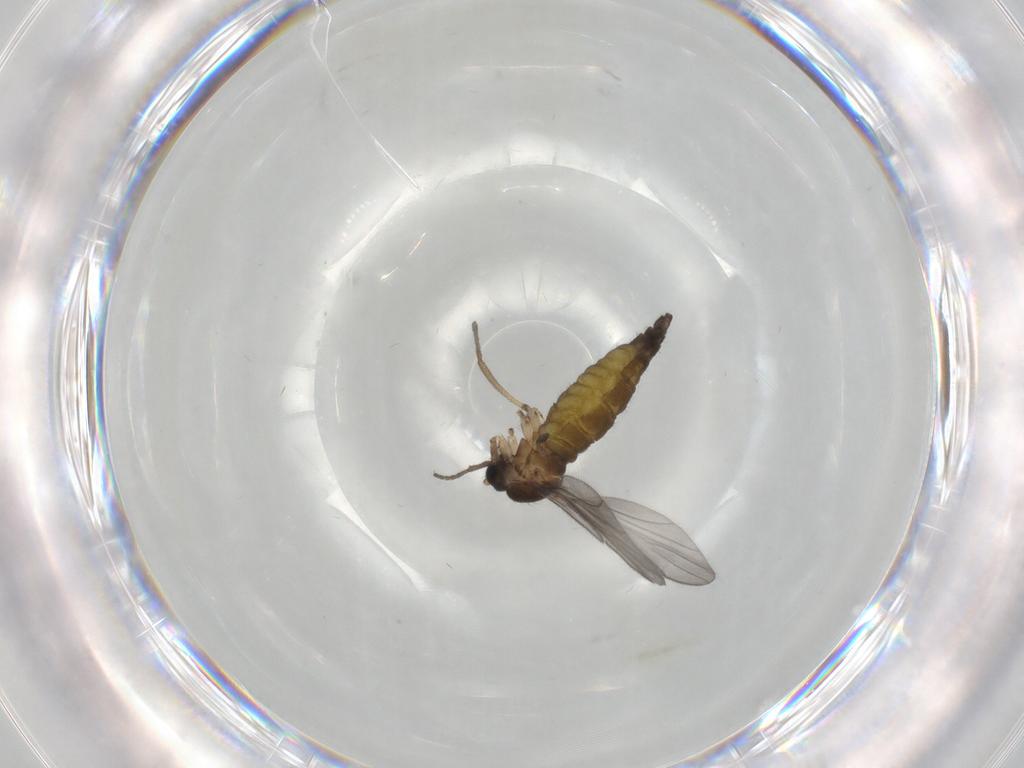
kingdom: Animalia
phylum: Arthropoda
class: Insecta
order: Diptera
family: Sciaridae
